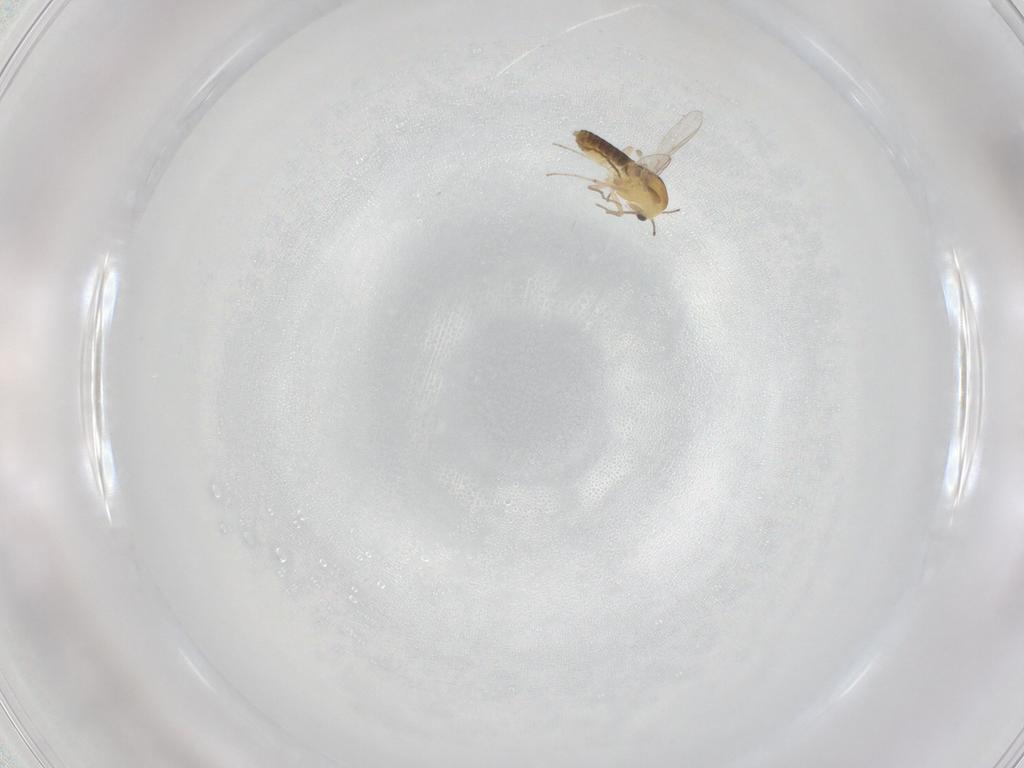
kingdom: Animalia
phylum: Arthropoda
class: Insecta
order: Diptera
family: Chironomidae
